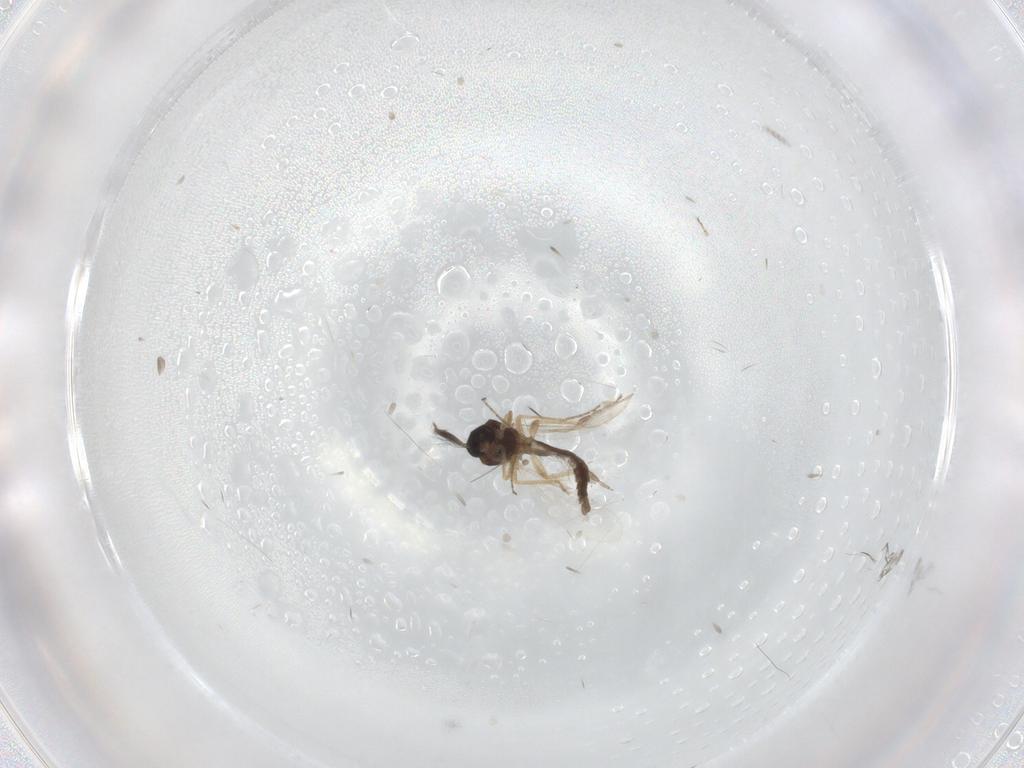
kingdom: Animalia
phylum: Arthropoda
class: Insecta
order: Diptera
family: Ceratopogonidae
